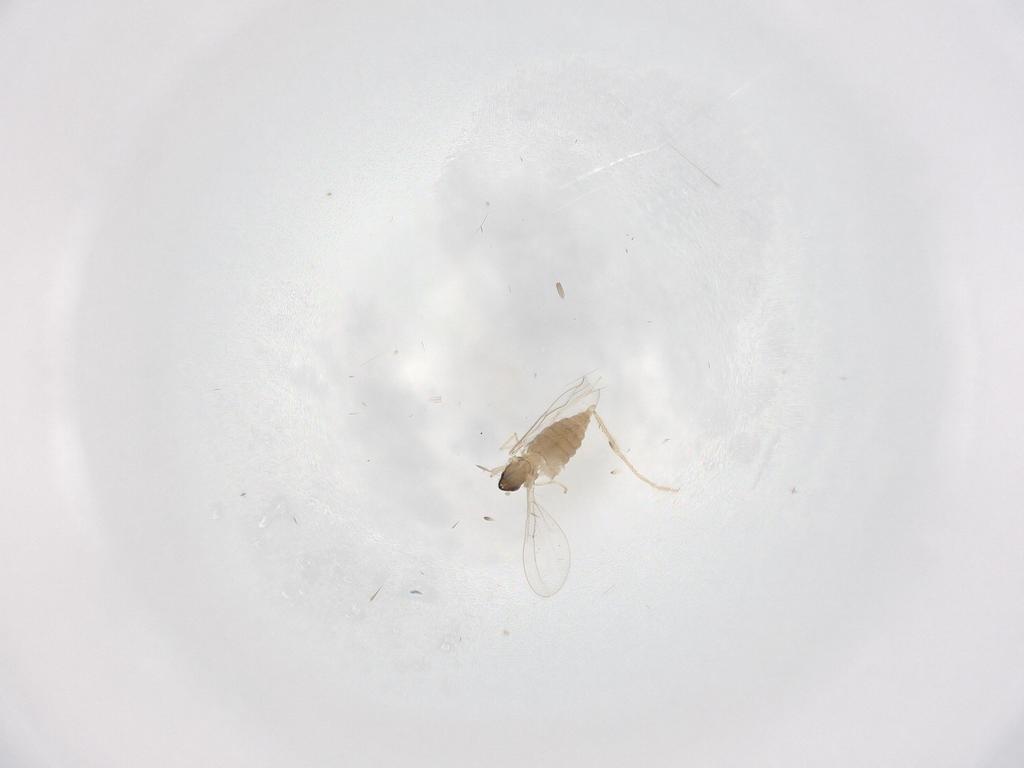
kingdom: Animalia
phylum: Arthropoda
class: Insecta
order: Diptera
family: Cecidomyiidae
